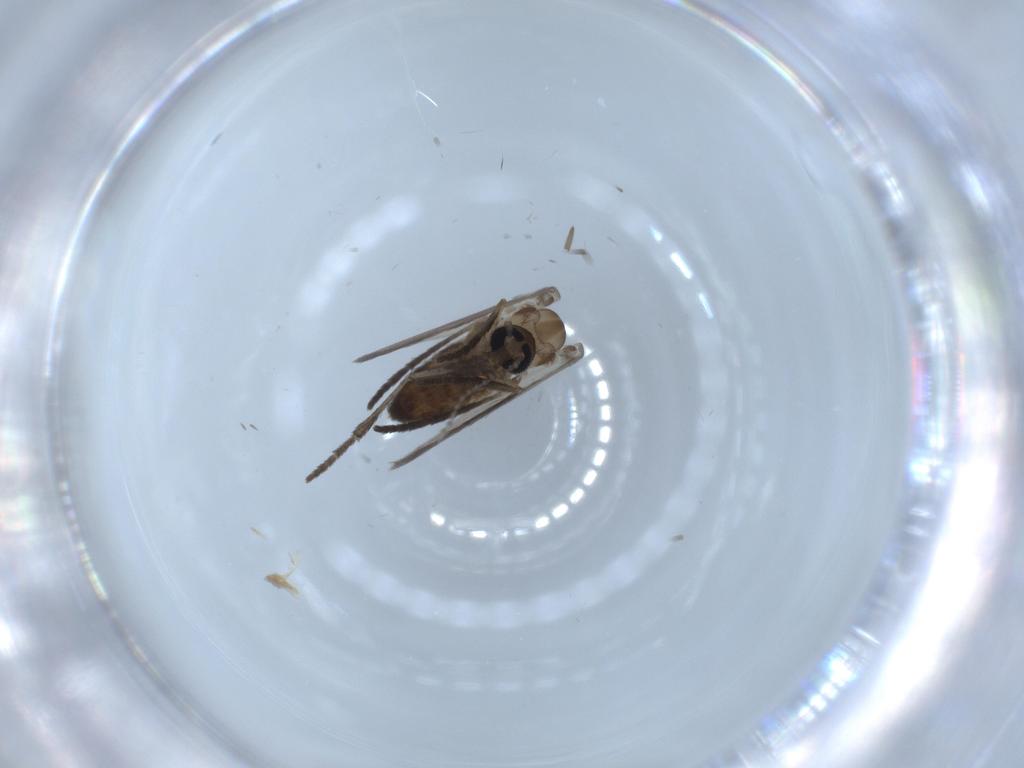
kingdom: Animalia
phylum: Arthropoda
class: Insecta
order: Diptera
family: Psychodidae
